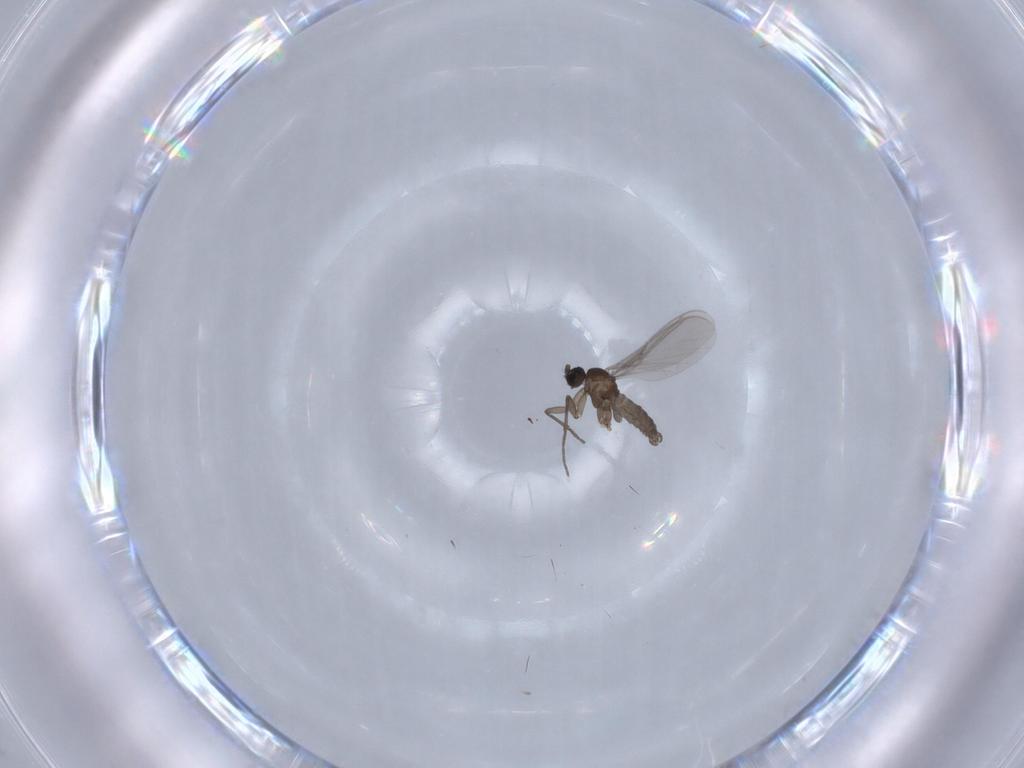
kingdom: Animalia
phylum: Arthropoda
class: Insecta
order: Diptera
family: Sciaridae
